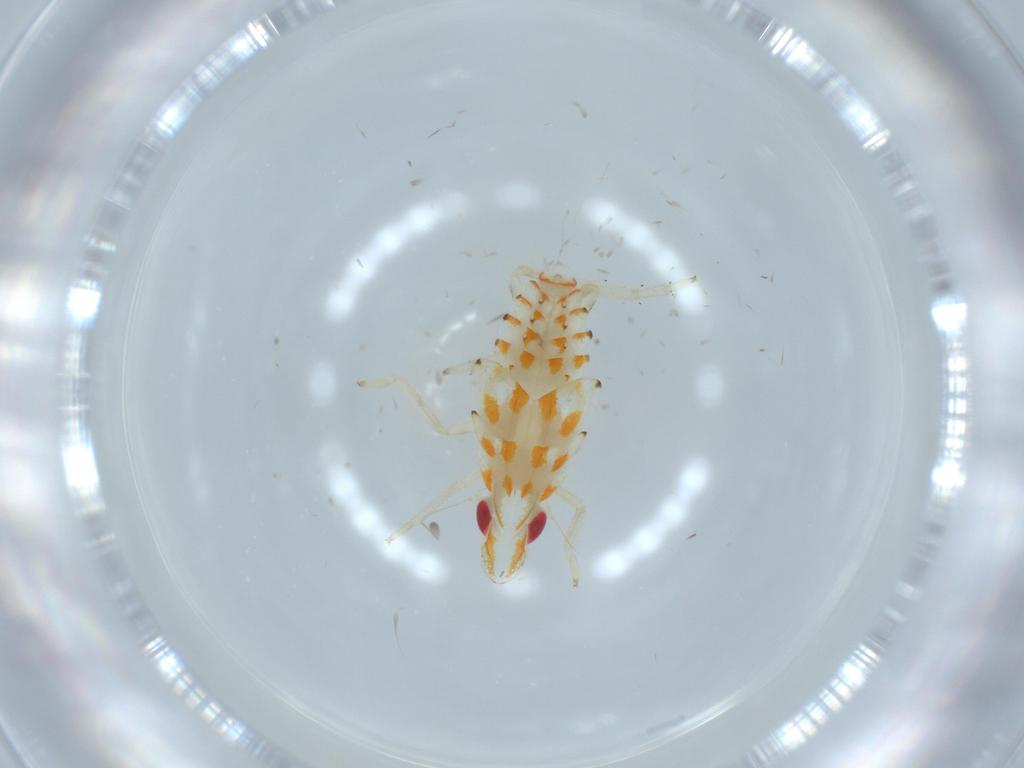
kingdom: Animalia
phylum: Arthropoda
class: Insecta
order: Hemiptera
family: Tropiduchidae
